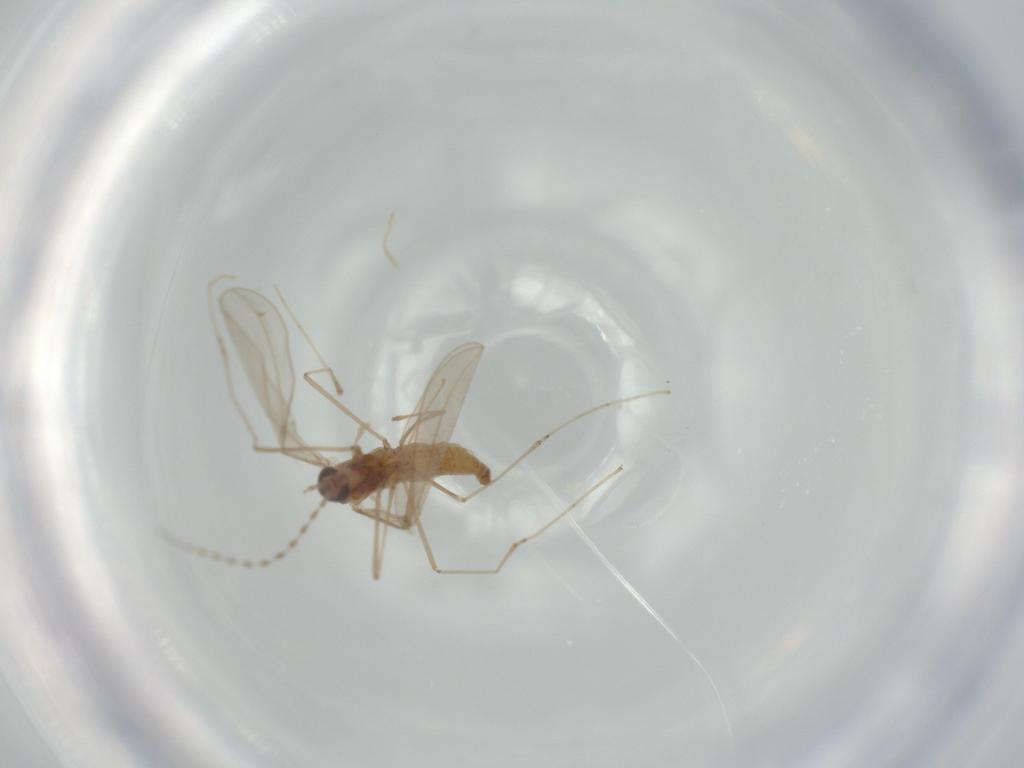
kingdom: Animalia
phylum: Arthropoda
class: Insecta
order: Diptera
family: Cecidomyiidae
